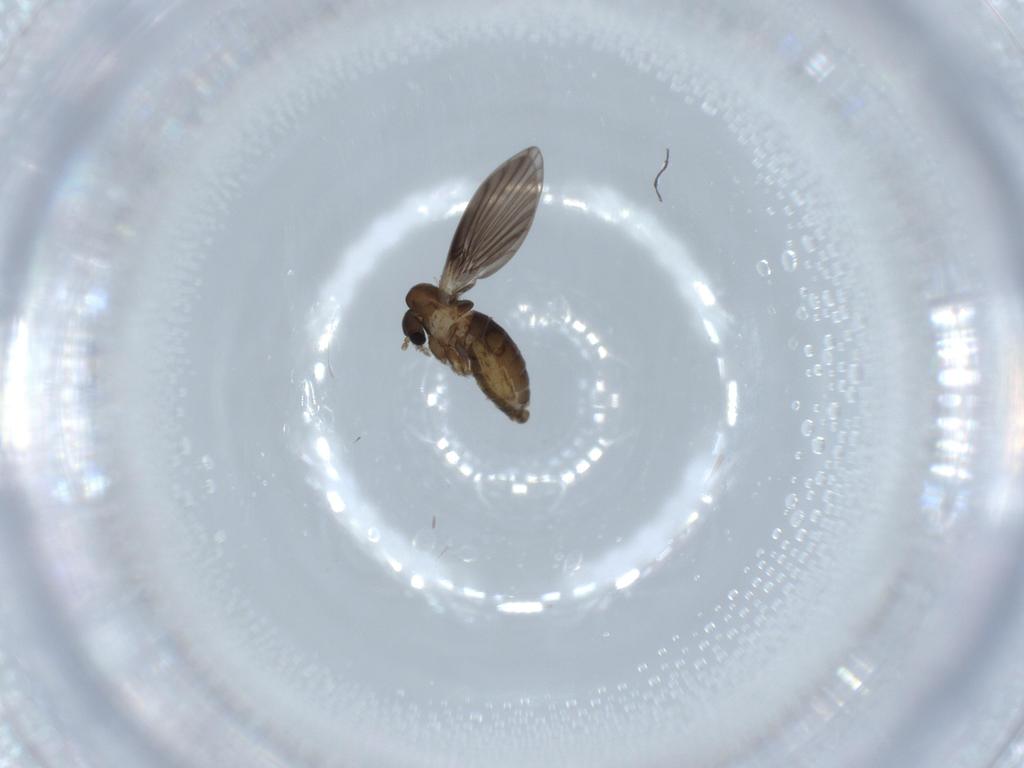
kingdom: Animalia
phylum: Arthropoda
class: Insecta
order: Diptera
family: Psychodidae
